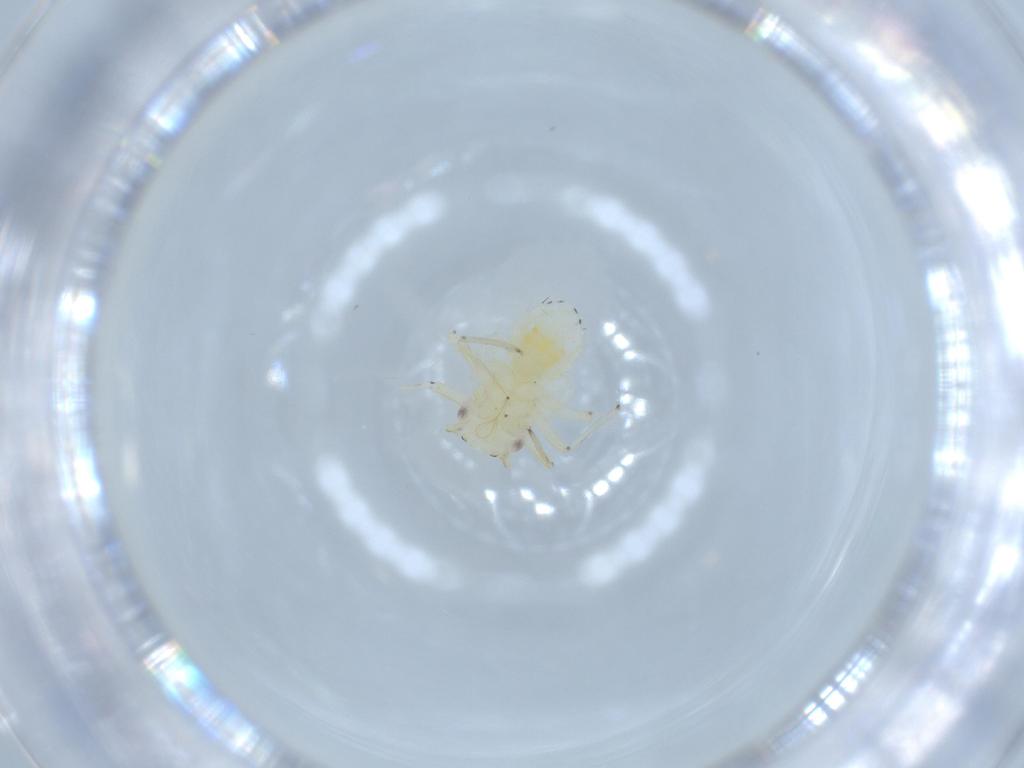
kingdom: Animalia
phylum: Arthropoda
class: Insecta
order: Hemiptera
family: Psyllidae
